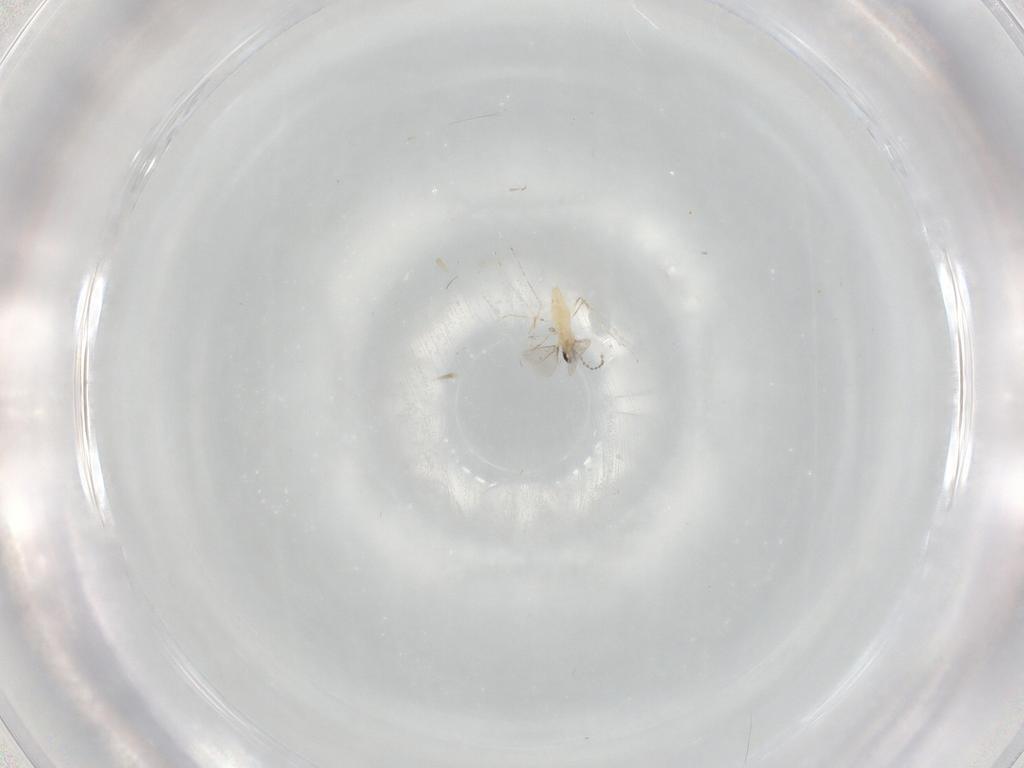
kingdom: Animalia
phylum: Arthropoda
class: Insecta
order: Diptera
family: Cecidomyiidae
